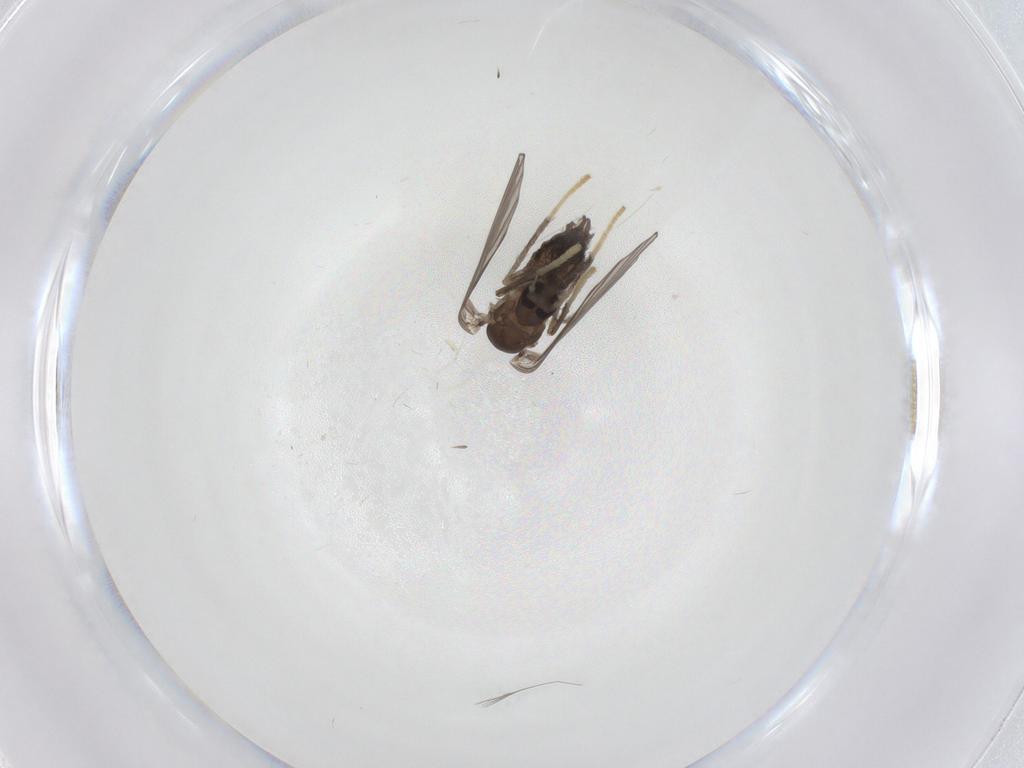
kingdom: Animalia
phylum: Arthropoda
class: Insecta
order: Diptera
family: Psychodidae
